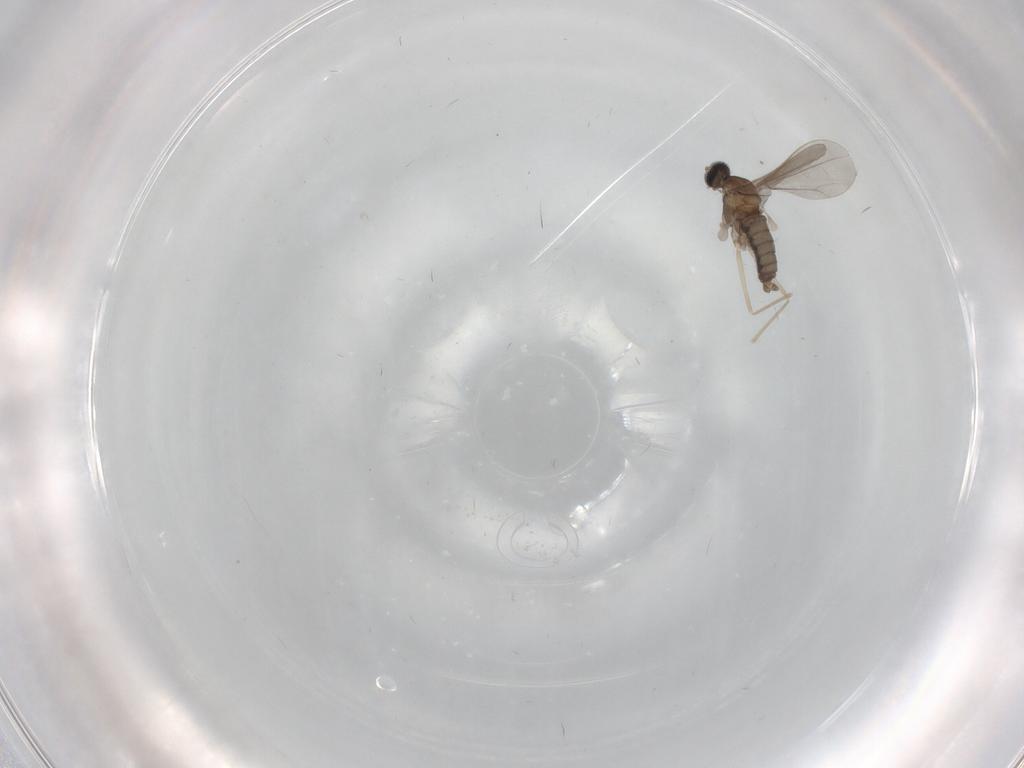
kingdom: Animalia
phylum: Arthropoda
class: Insecta
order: Diptera
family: Cecidomyiidae
